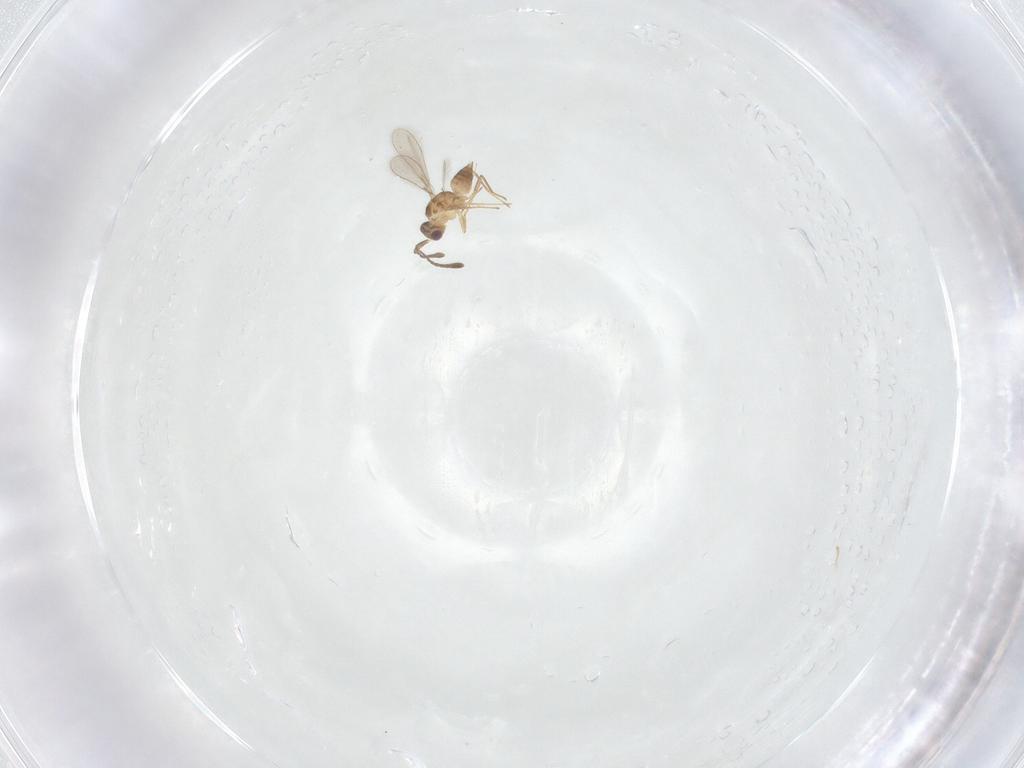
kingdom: Animalia
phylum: Arthropoda
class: Insecta
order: Hymenoptera
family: Mymaridae
